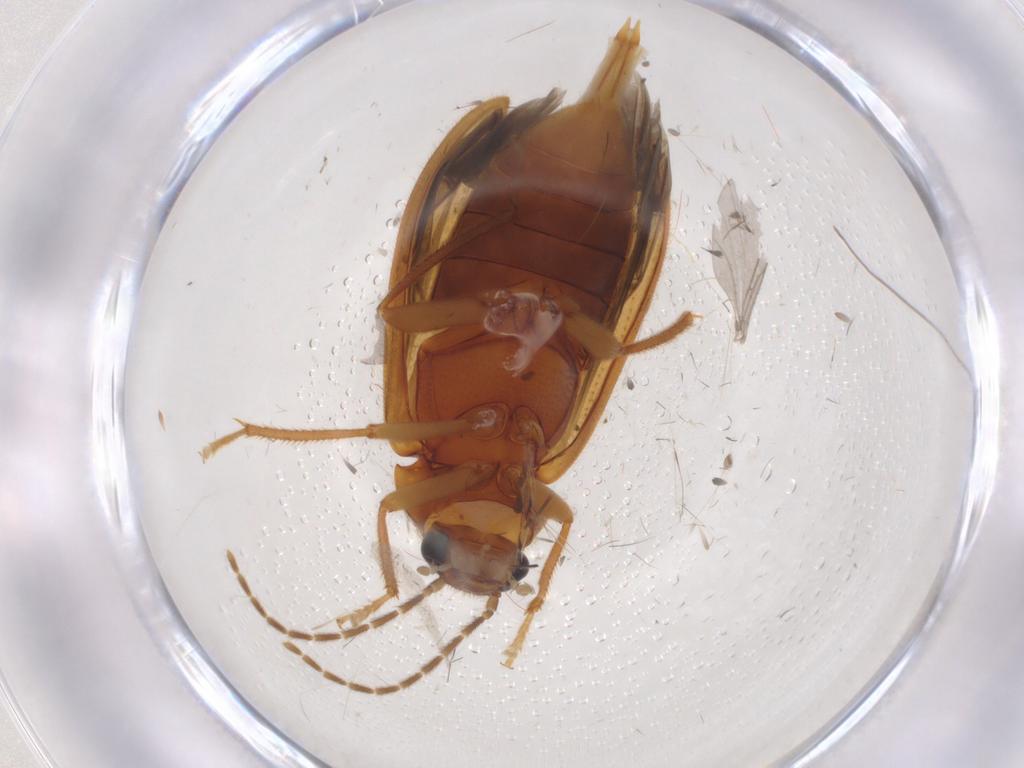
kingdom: Animalia
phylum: Arthropoda
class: Insecta
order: Coleoptera
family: Ptilodactylidae
